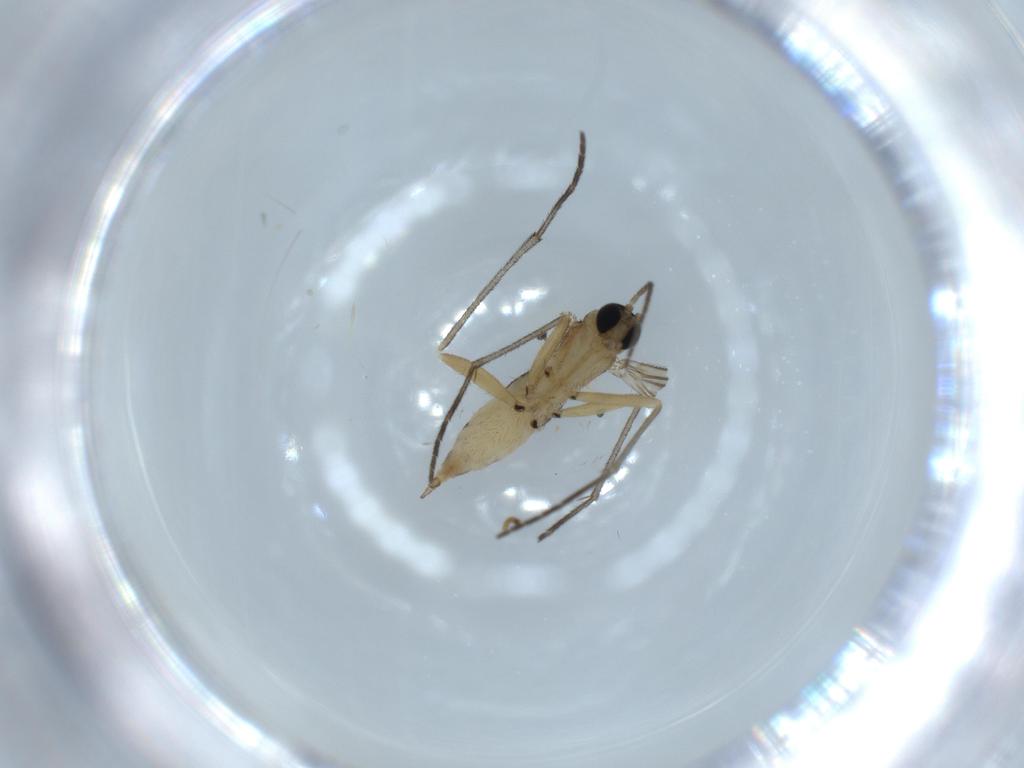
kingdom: Animalia
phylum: Arthropoda
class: Insecta
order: Diptera
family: Sciaridae
